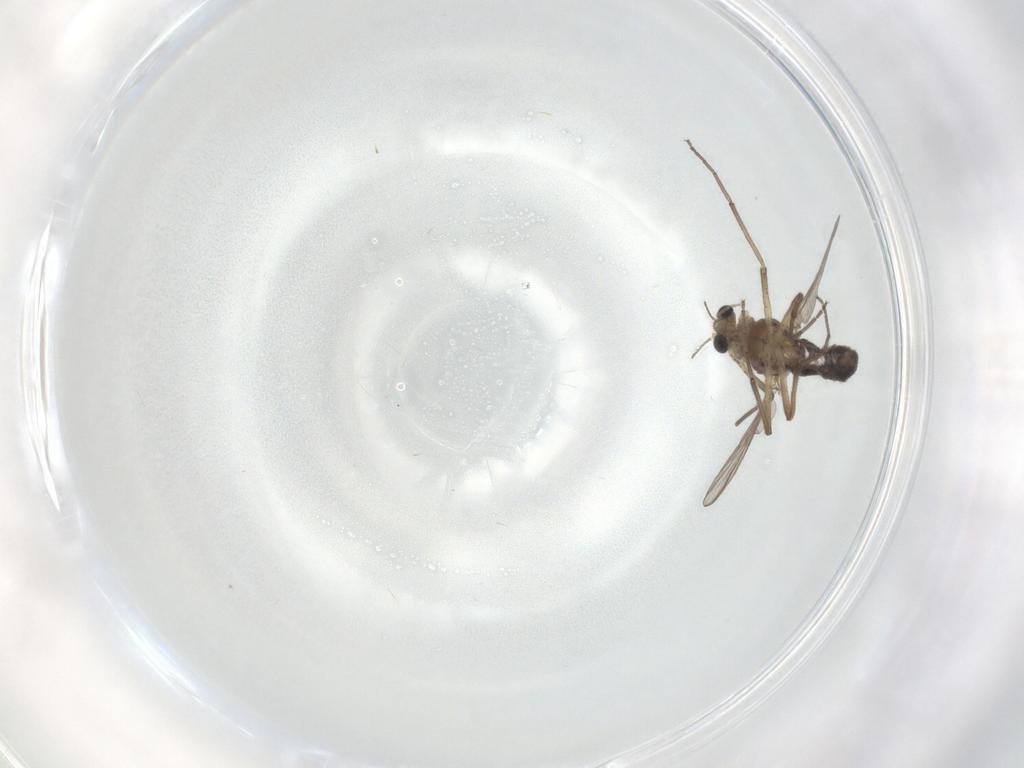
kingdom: Animalia
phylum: Arthropoda
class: Insecta
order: Diptera
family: Chironomidae
